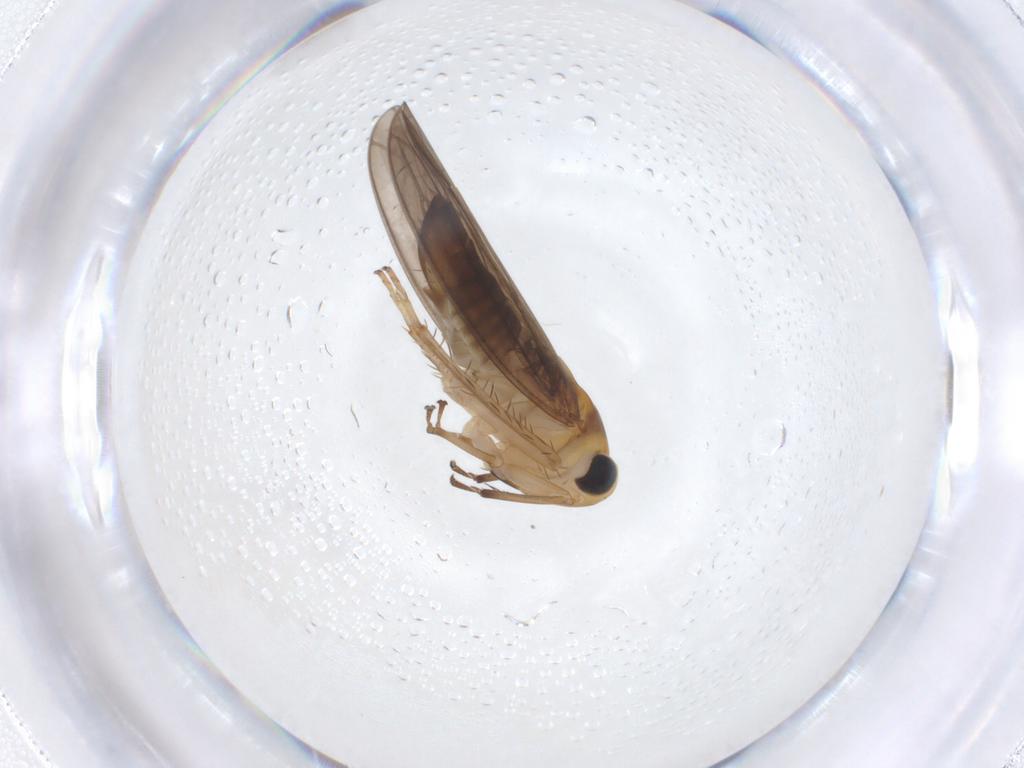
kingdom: Animalia
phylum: Arthropoda
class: Insecta
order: Hemiptera
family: Cicadellidae
